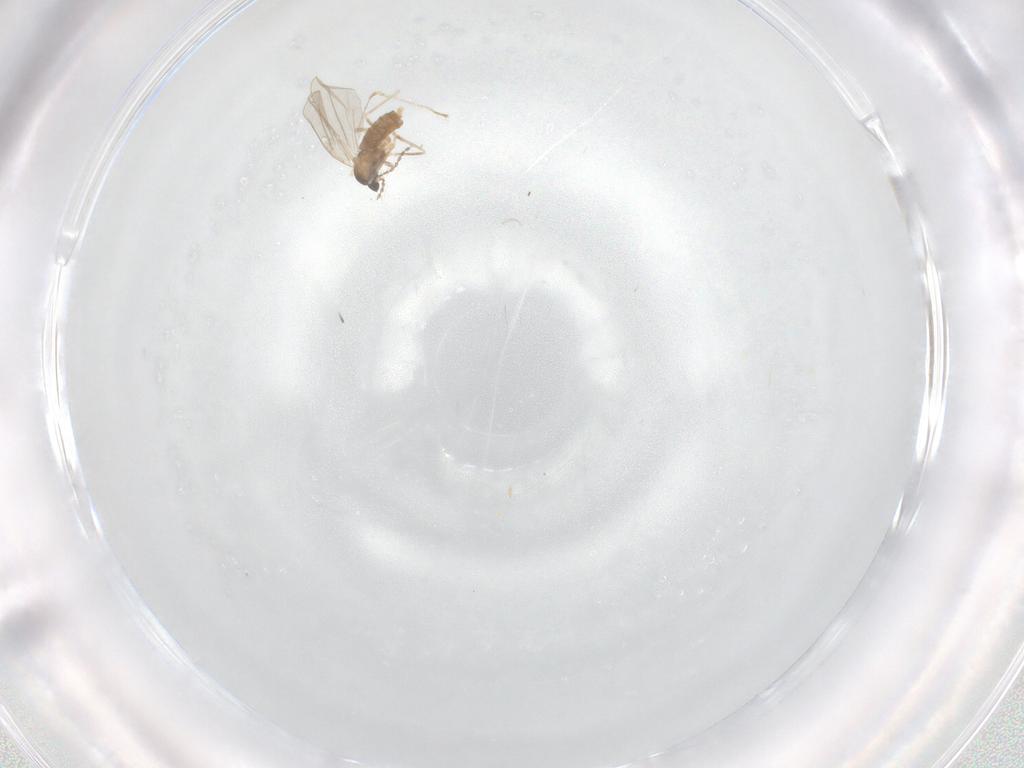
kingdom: Animalia
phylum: Arthropoda
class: Insecta
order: Diptera
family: Cecidomyiidae
